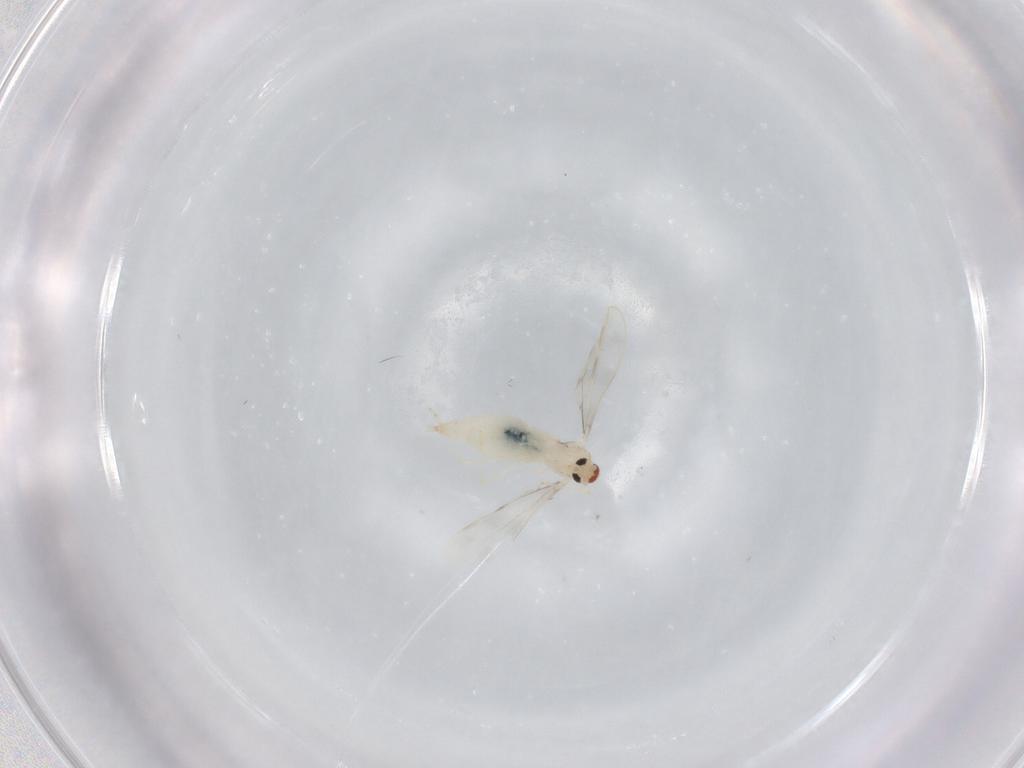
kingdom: Animalia
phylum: Arthropoda
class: Insecta
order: Diptera
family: Cecidomyiidae
